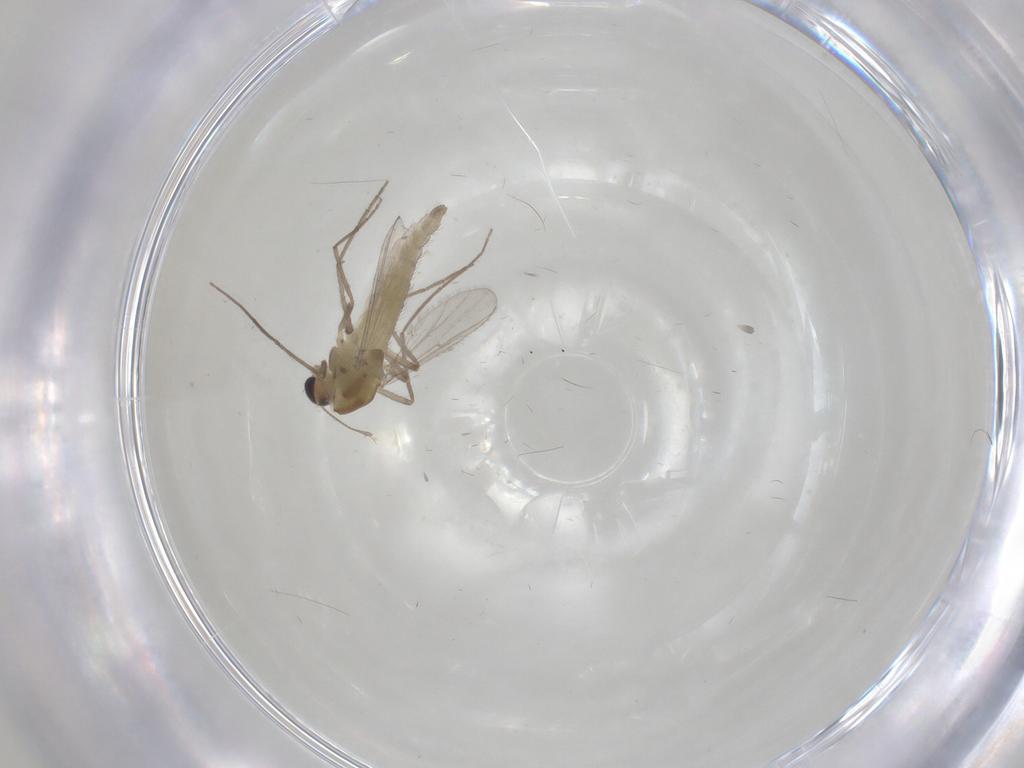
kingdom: Animalia
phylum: Arthropoda
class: Insecta
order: Diptera
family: Chironomidae
